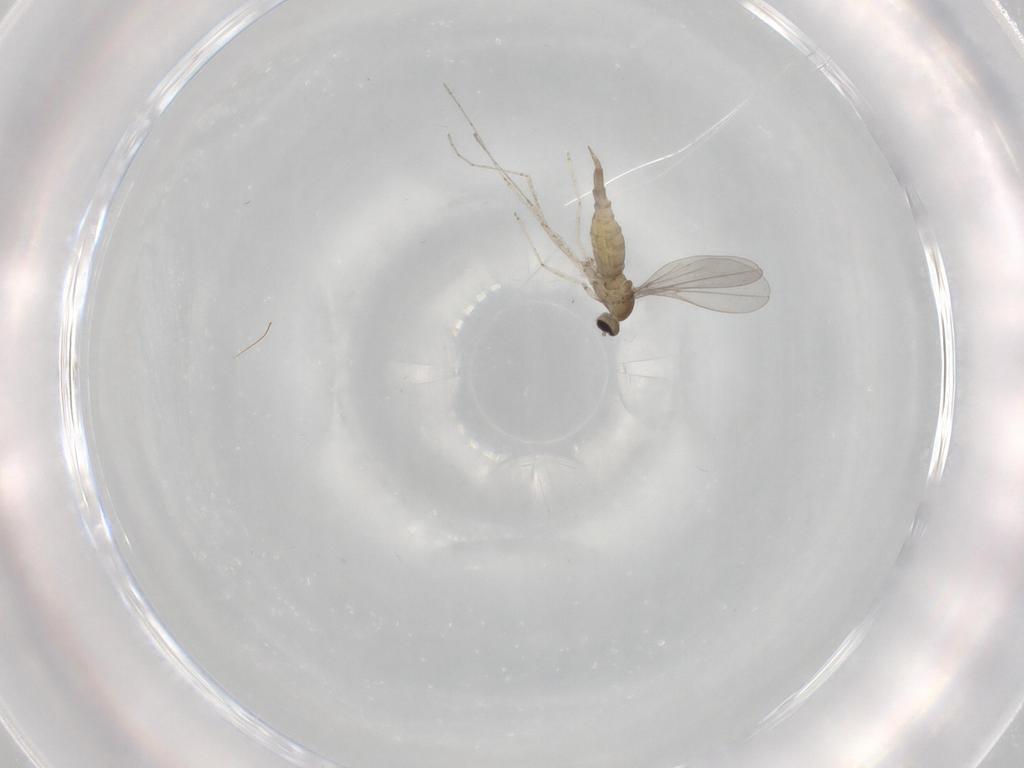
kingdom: Animalia
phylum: Arthropoda
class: Insecta
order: Diptera
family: Cecidomyiidae
